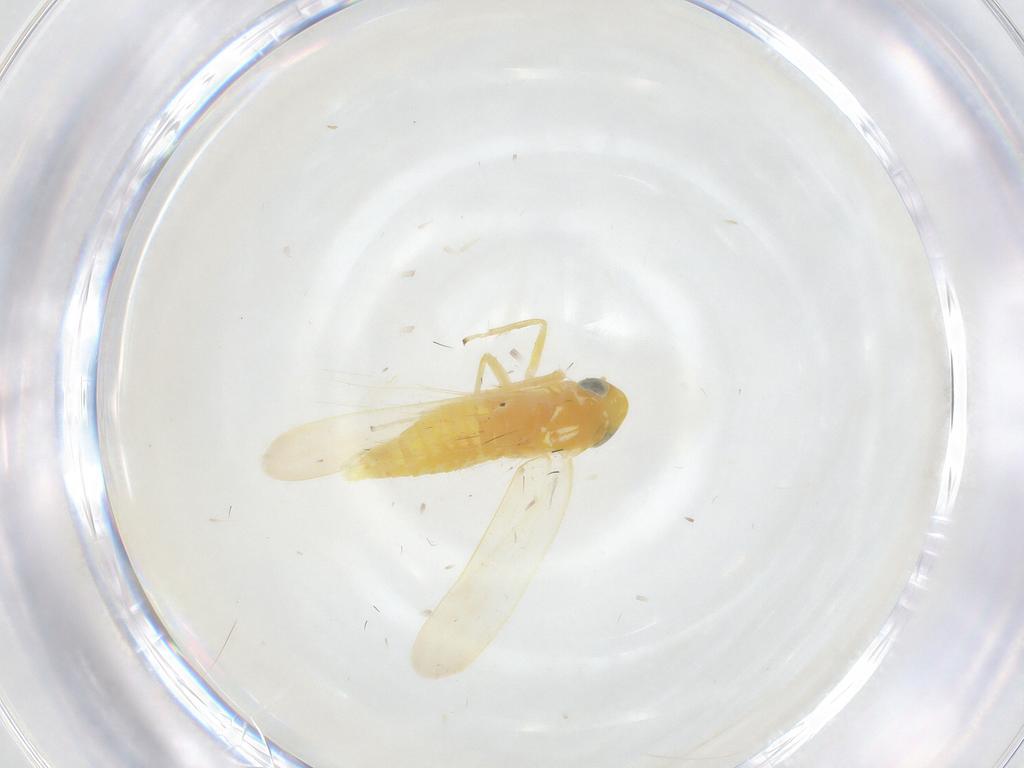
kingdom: Animalia
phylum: Arthropoda
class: Insecta
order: Hemiptera
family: Cicadellidae
